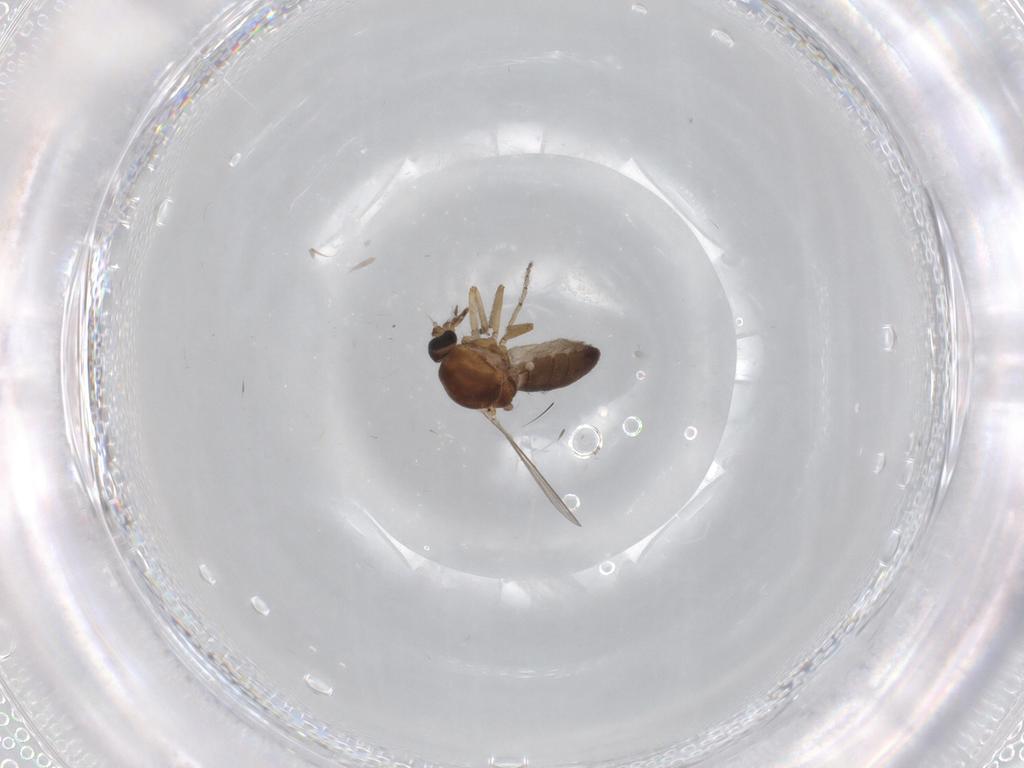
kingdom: Animalia
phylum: Arthropoda
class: Insecta
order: Diptera
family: Ceratopogonidae
